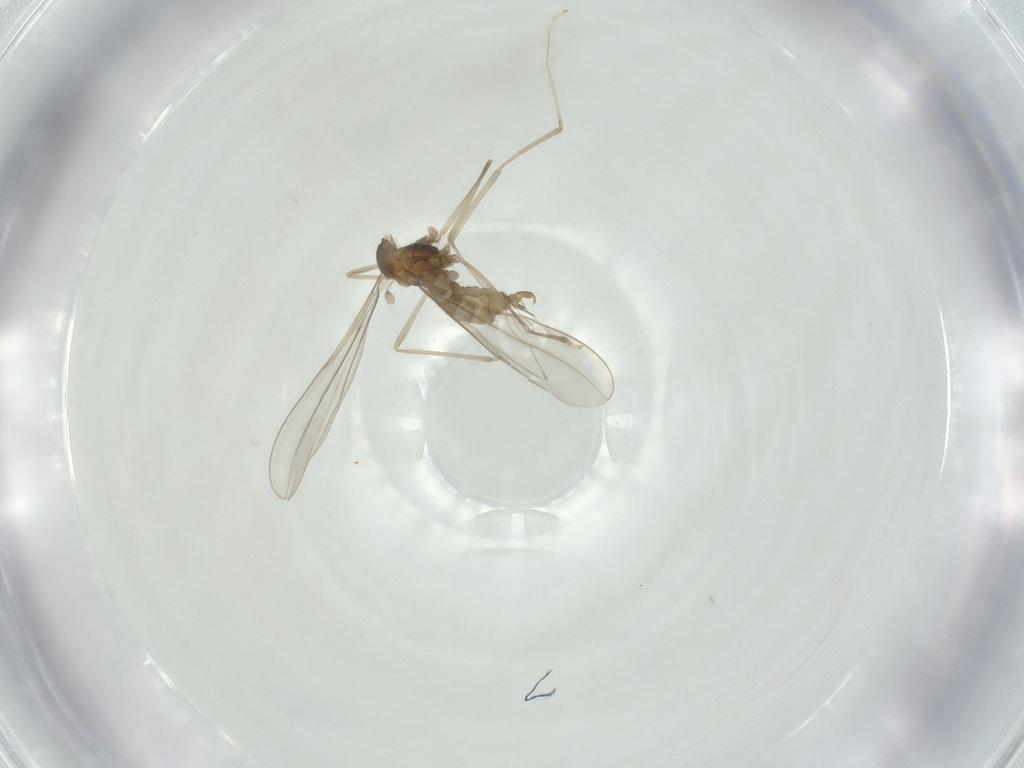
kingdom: Animalia
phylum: Arthropoda
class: Insecta
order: Diptera
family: Cecidomyiidae
